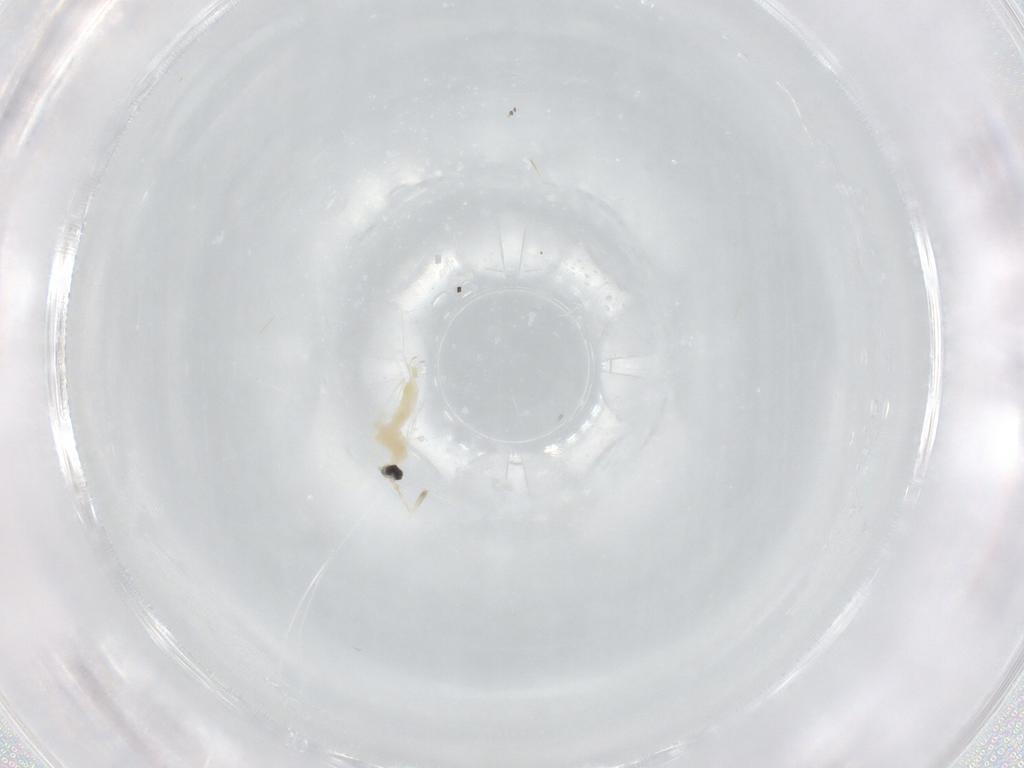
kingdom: Animalia
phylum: Arthropoda
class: Insecta
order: Diptera
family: Cecidomyiidae
